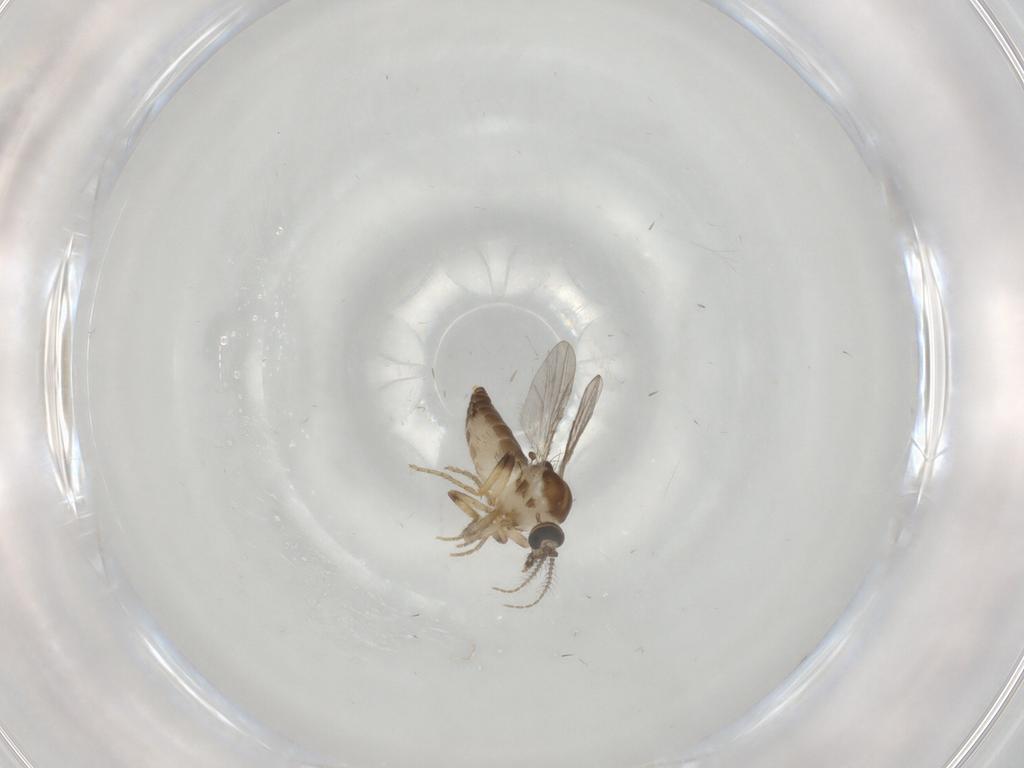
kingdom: Animalia
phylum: Arthropoda
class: Insecta
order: Diptera
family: Ceratopogonidae
